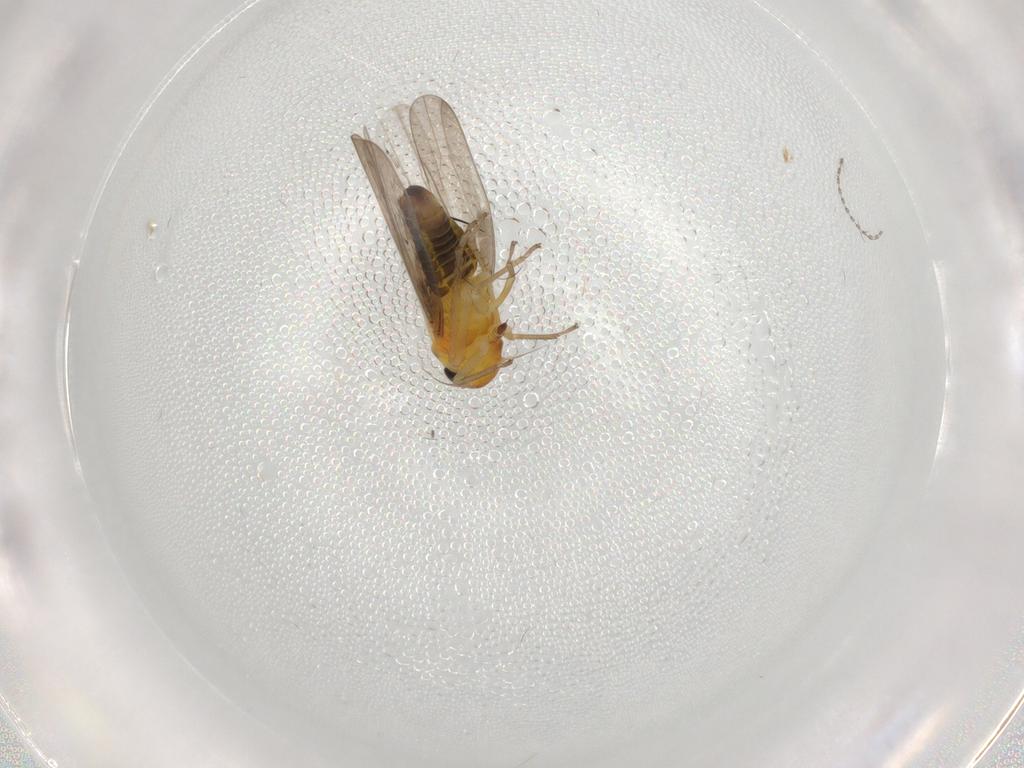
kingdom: Animalia
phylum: Arthropoda
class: Insecta
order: Hemiptera
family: Cicadellidae
